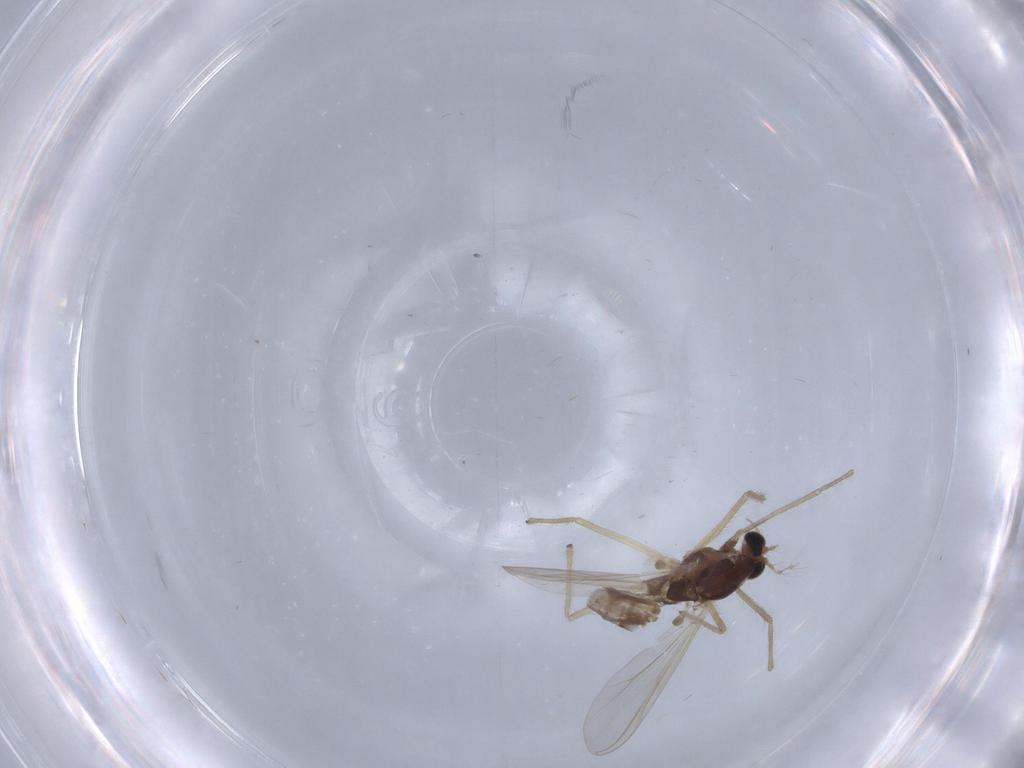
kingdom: Animalia
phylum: Arthropoda
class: Insecta
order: Diptera
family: Chironomidae
